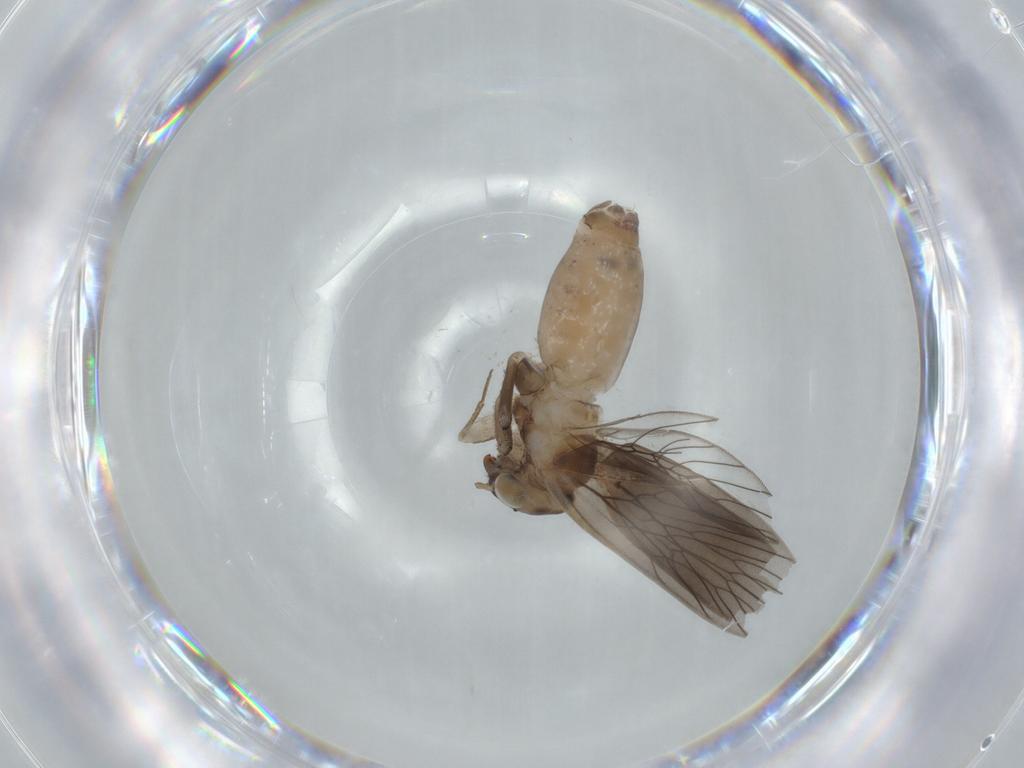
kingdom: Animalia
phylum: Arthropoda
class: Insecta
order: Psocodea
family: Lepidopsocidae
